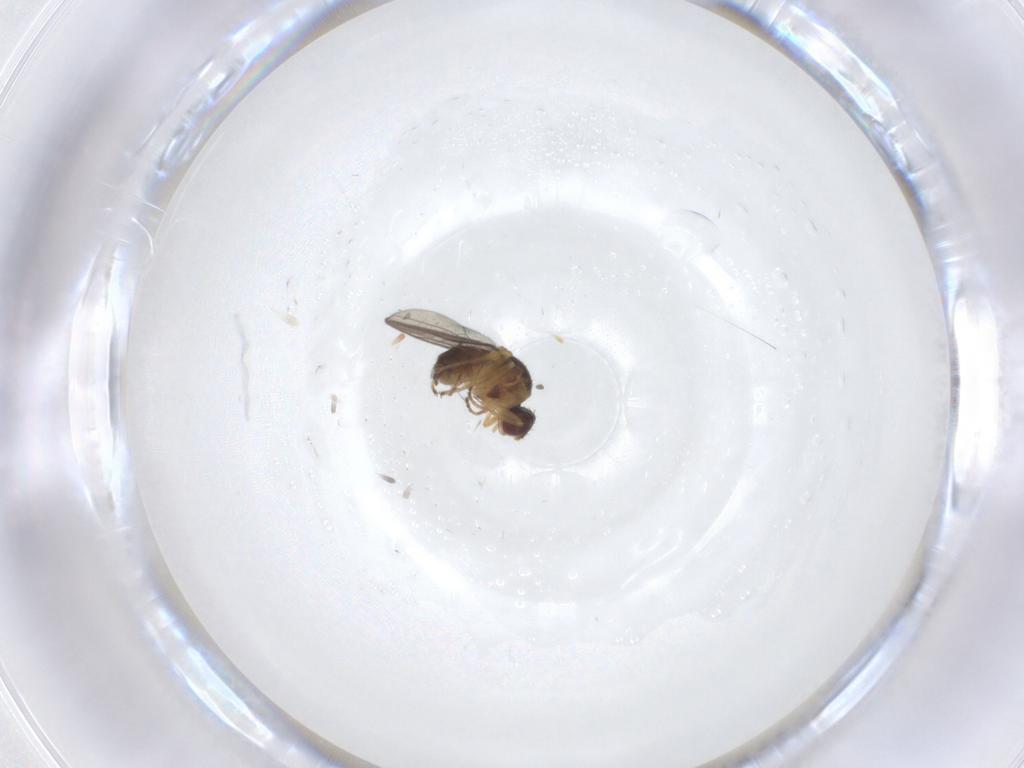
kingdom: Animalia
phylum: Arthropoda
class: Insecta
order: Diptera
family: Chloropidae
